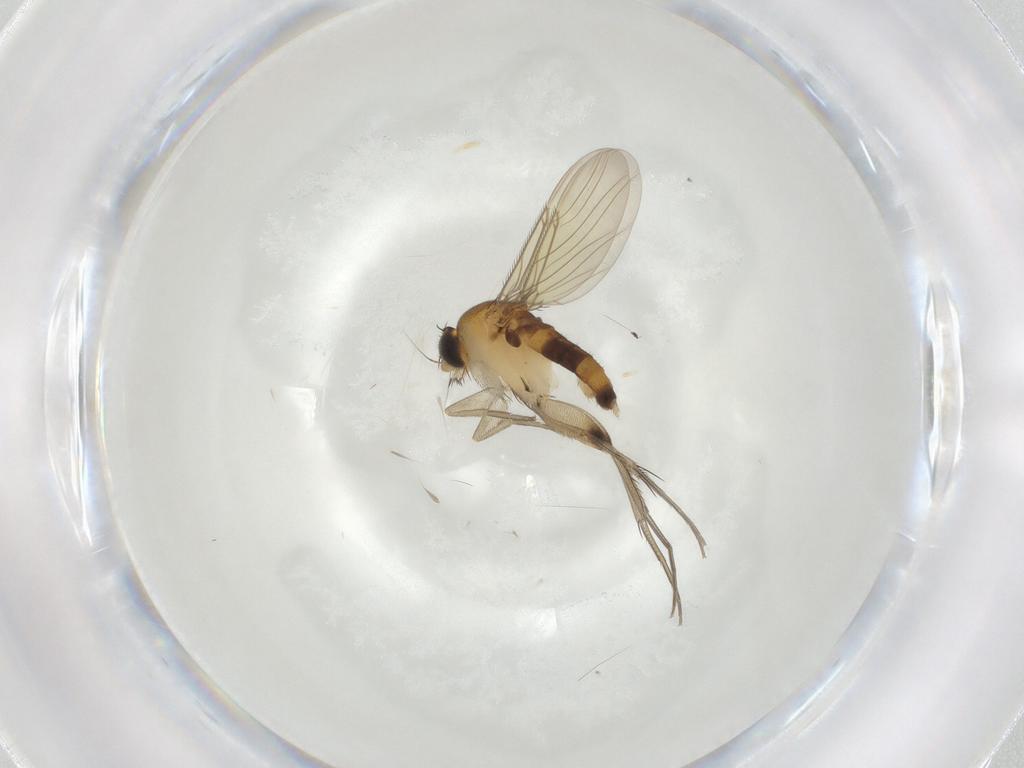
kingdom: Animalia
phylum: Arthropoda
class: Insecta
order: Diptera
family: Phoridae
